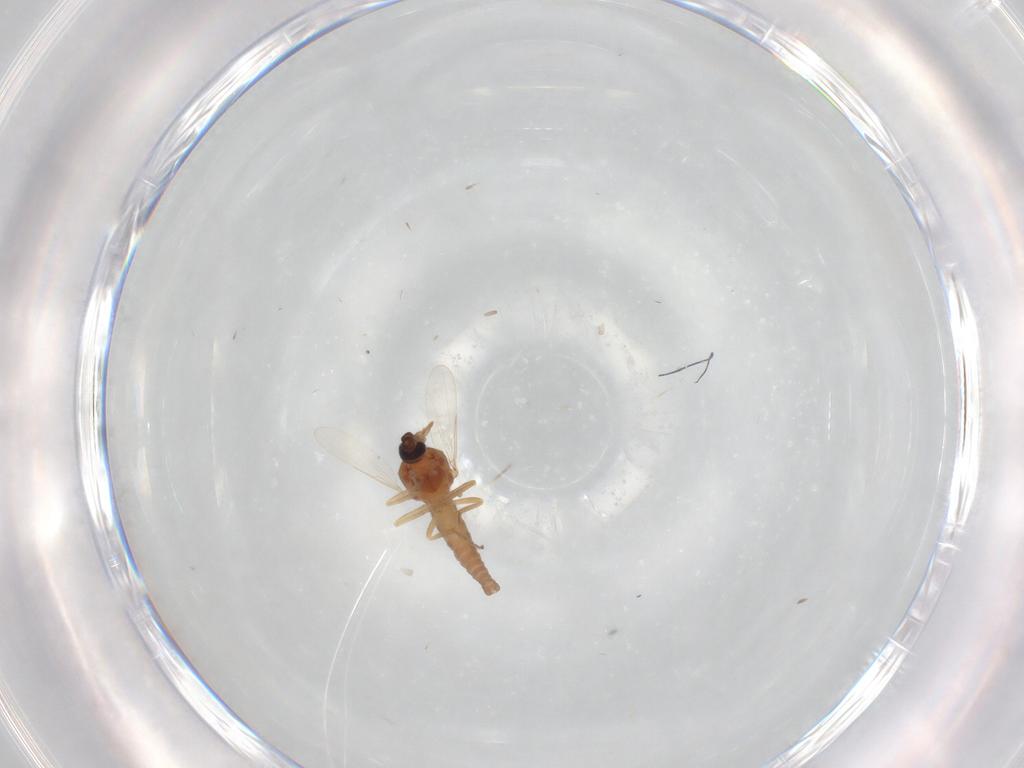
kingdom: Animalia
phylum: Arthropoda
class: Insecta
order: Diptera
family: Ceratopogonidae
